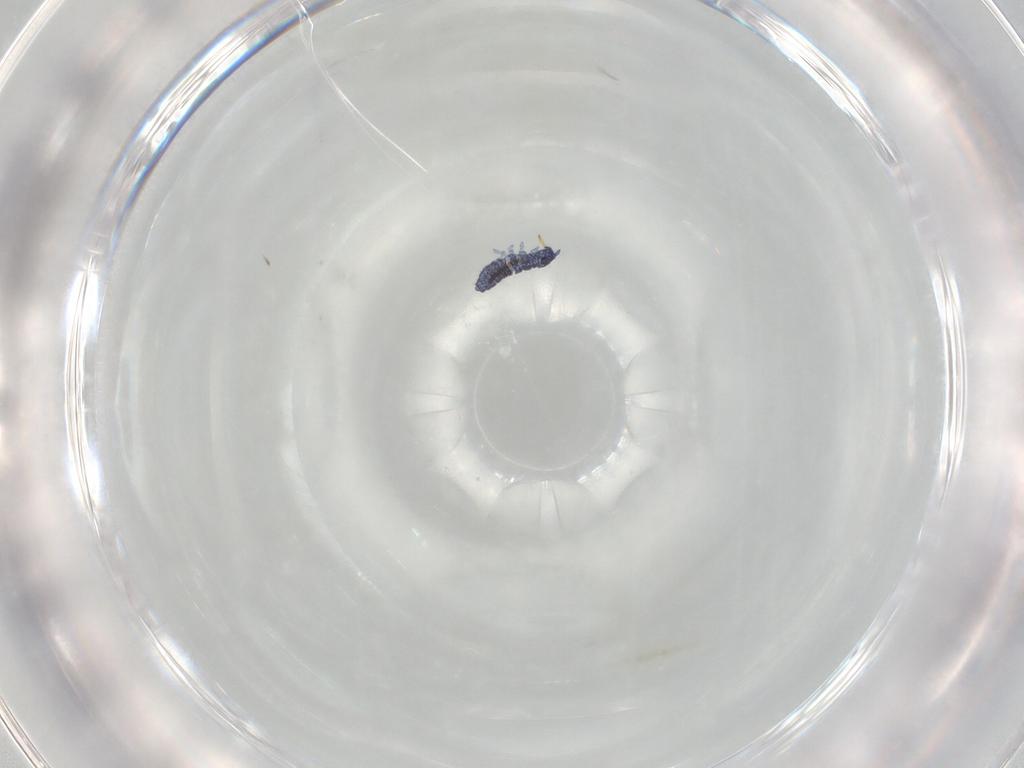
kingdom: Animalia
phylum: Arthropoda
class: Collembola
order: Poduromorpha
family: Hypogastruridae
